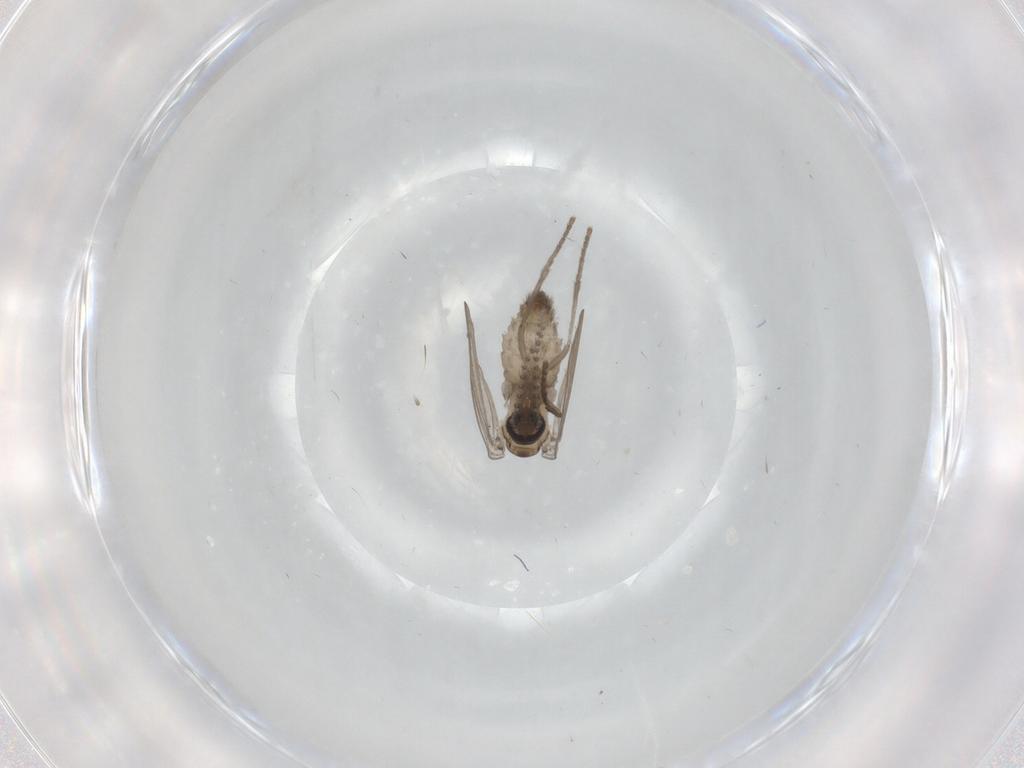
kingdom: Animalia
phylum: Arthropoda
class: Insecta
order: Diptera
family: Psychodidae
